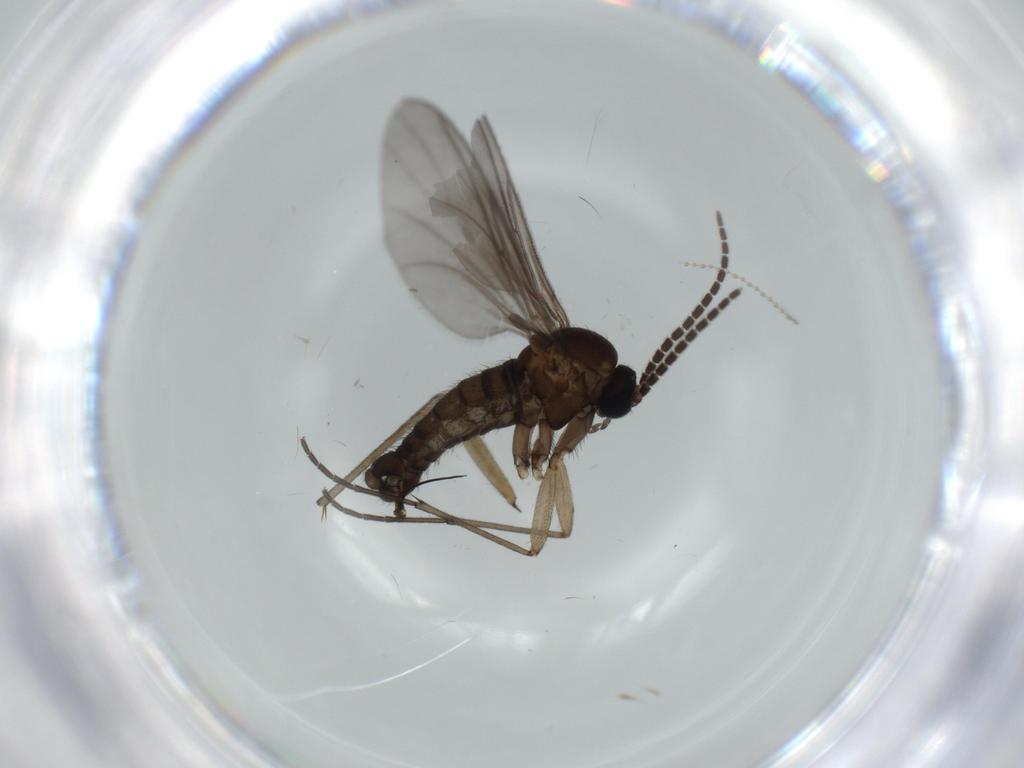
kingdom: Animalia
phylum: Arthropoda
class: Insecta
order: Diptera
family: Sciaridae
